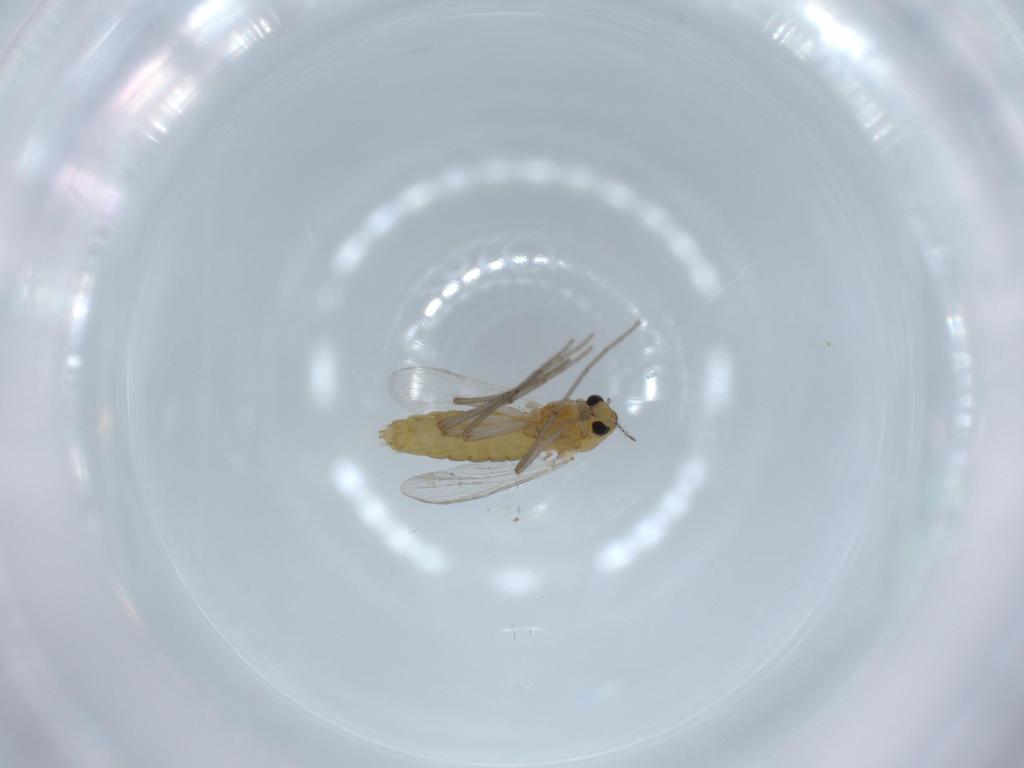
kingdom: Animalia
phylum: Arthropoda
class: Insecta
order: Diptera
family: Chironomidae
